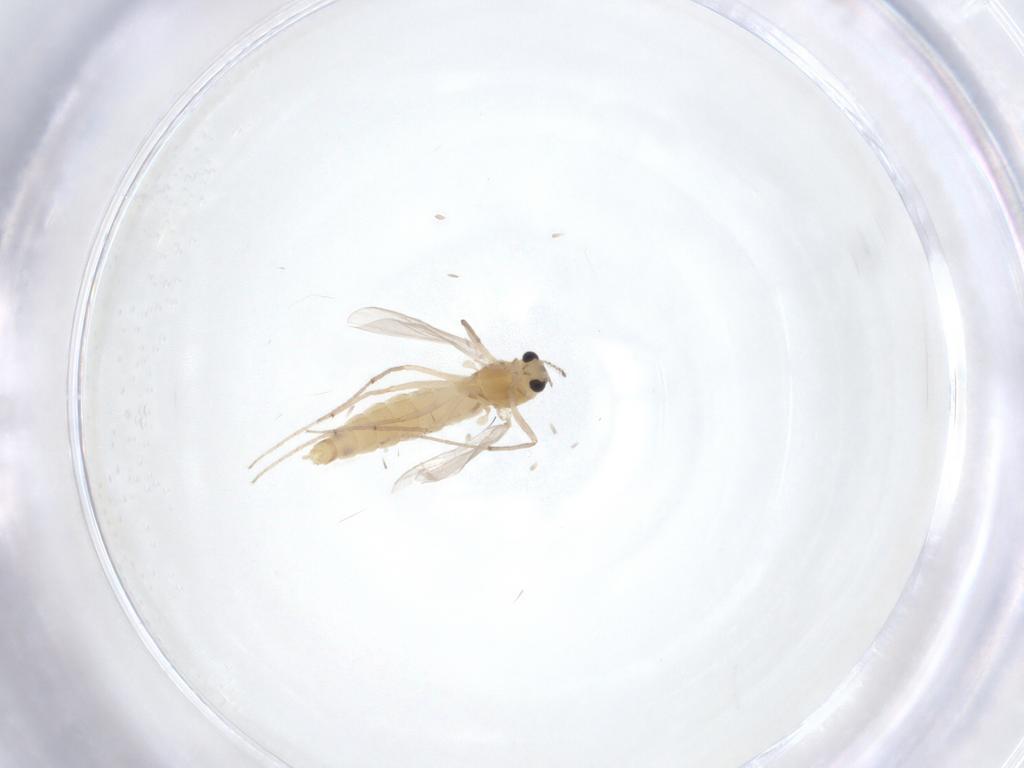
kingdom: Animalia
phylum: Arthropoda
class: Insecta
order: Diptera
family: Chironomidae
